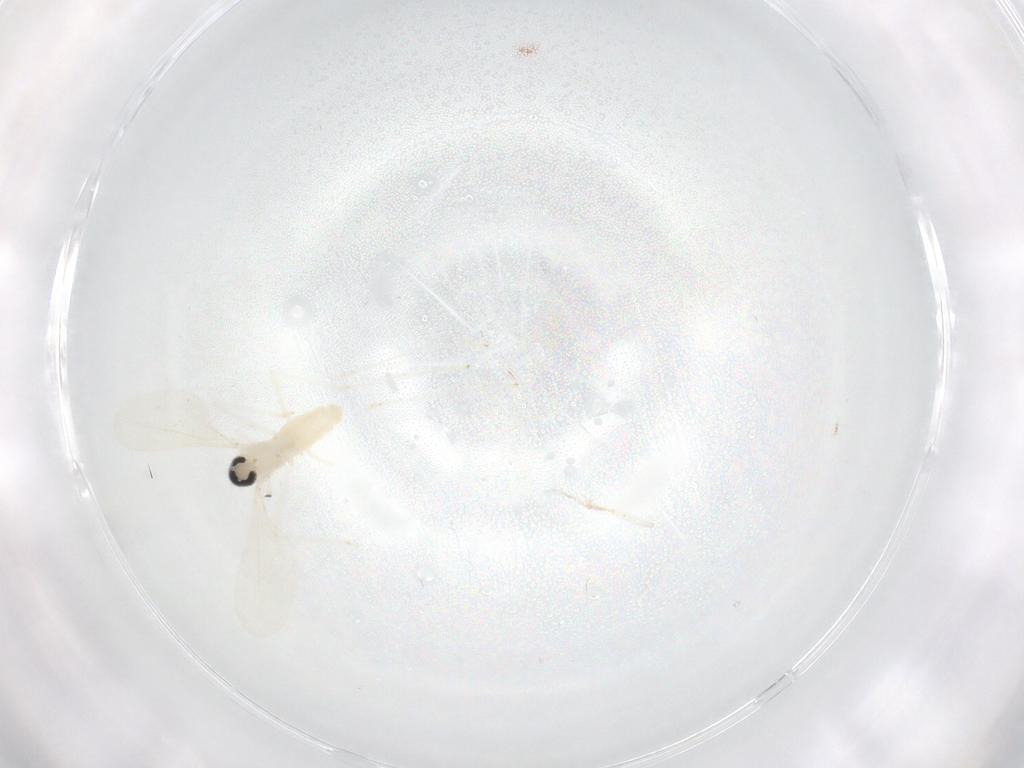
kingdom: Animalia
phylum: Arthropoda
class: Insecta
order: Diptera
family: Cecidomyiidae
